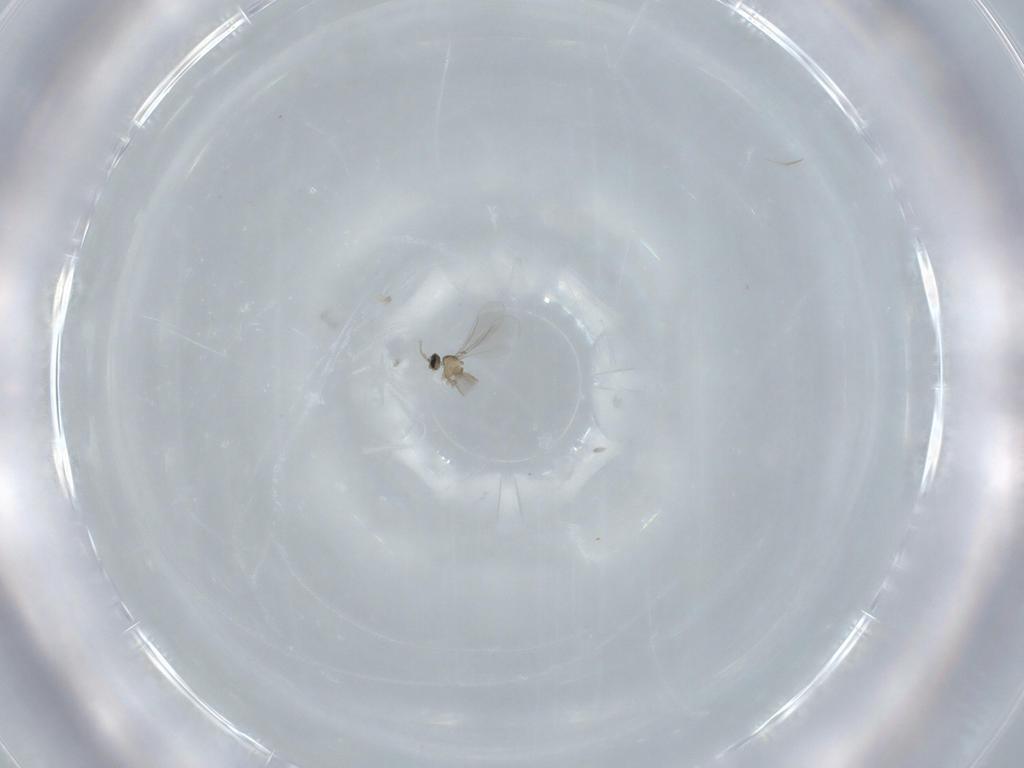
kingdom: Animalia
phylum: Arthropoda
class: Insecta
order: Diptera
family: Cecidomyiidae
